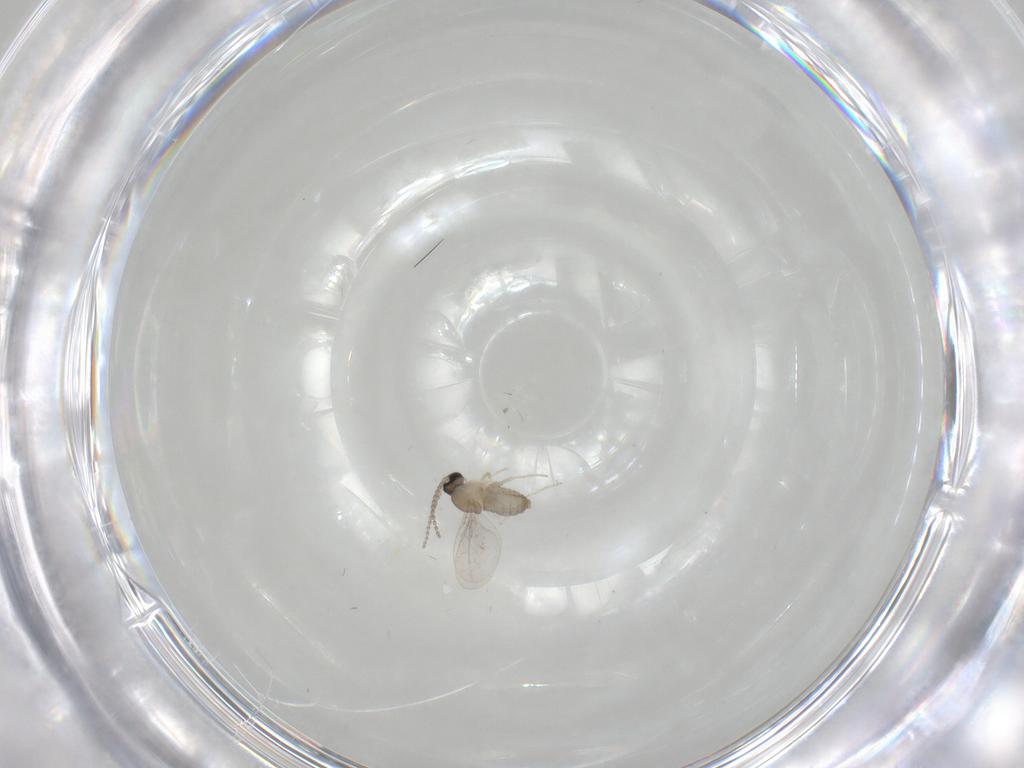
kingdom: Animalia
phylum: Arthropoda
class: Insecta
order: Diptera
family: Cecidomyiidae
